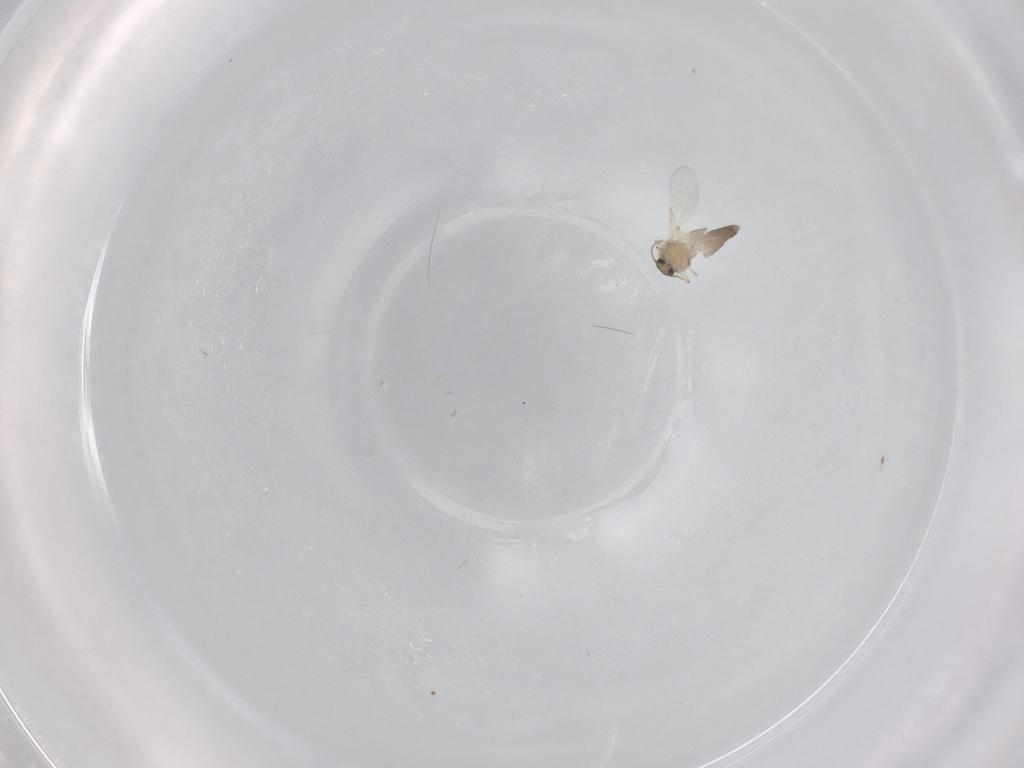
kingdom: Animalia
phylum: Arthropoda
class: Insecta
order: Diptera
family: Ceratopogonidae
